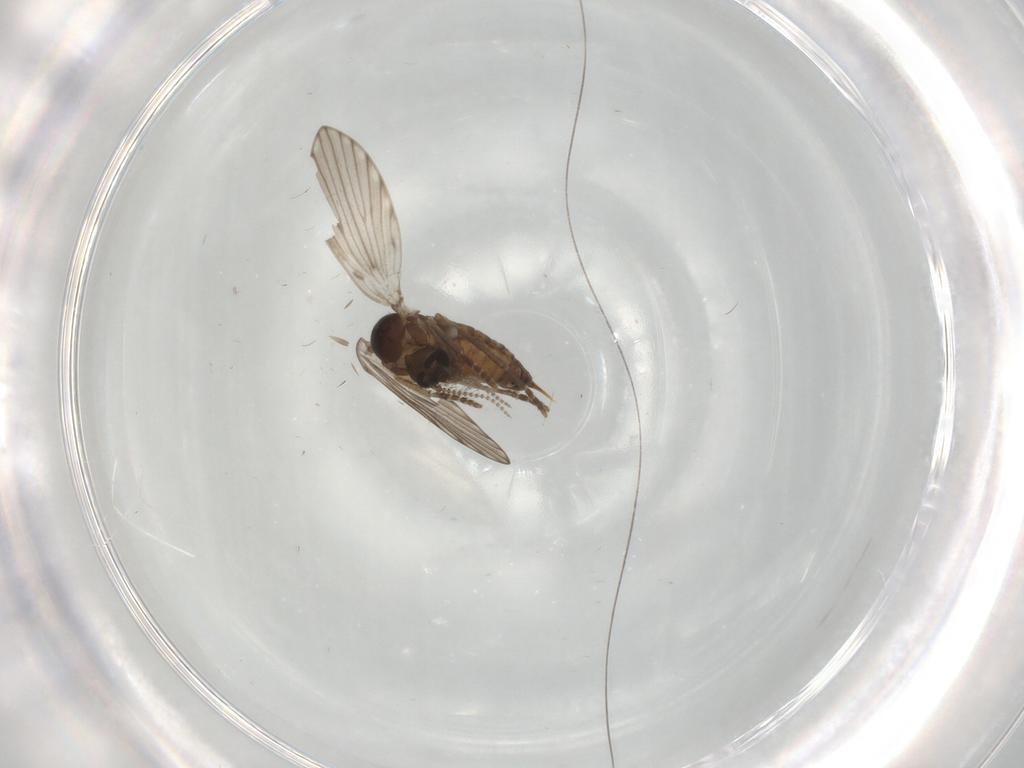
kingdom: Animalia
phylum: Arthropoda
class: Insecta
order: Diptera
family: Psychodidae
